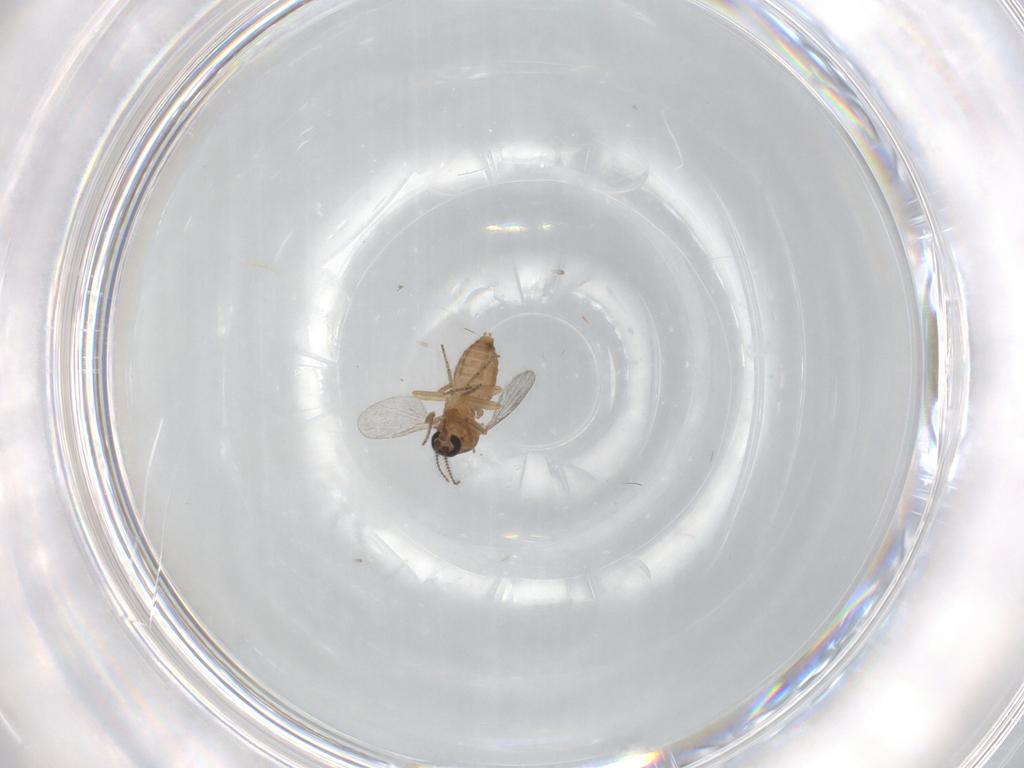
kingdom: Animalia
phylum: Arthropoda
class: Insecta
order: Diptera
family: Ceratopogonidae
